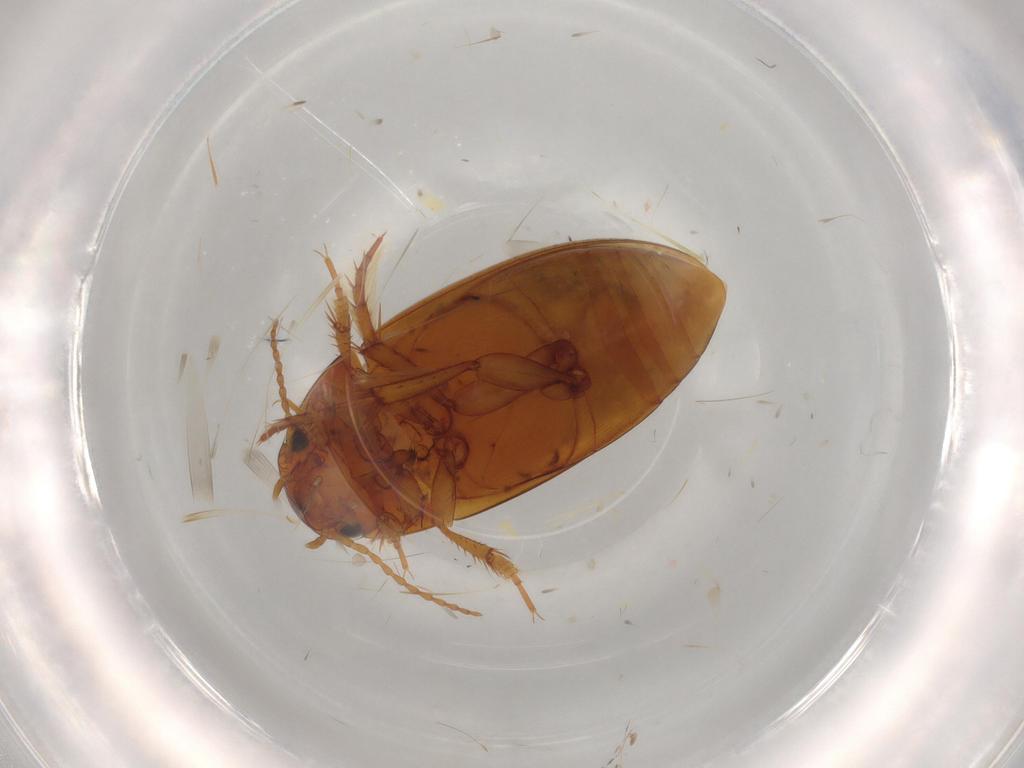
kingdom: Animalia
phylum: Arthropoda
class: Insecta
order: Coleoptera
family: Dytiscidae
